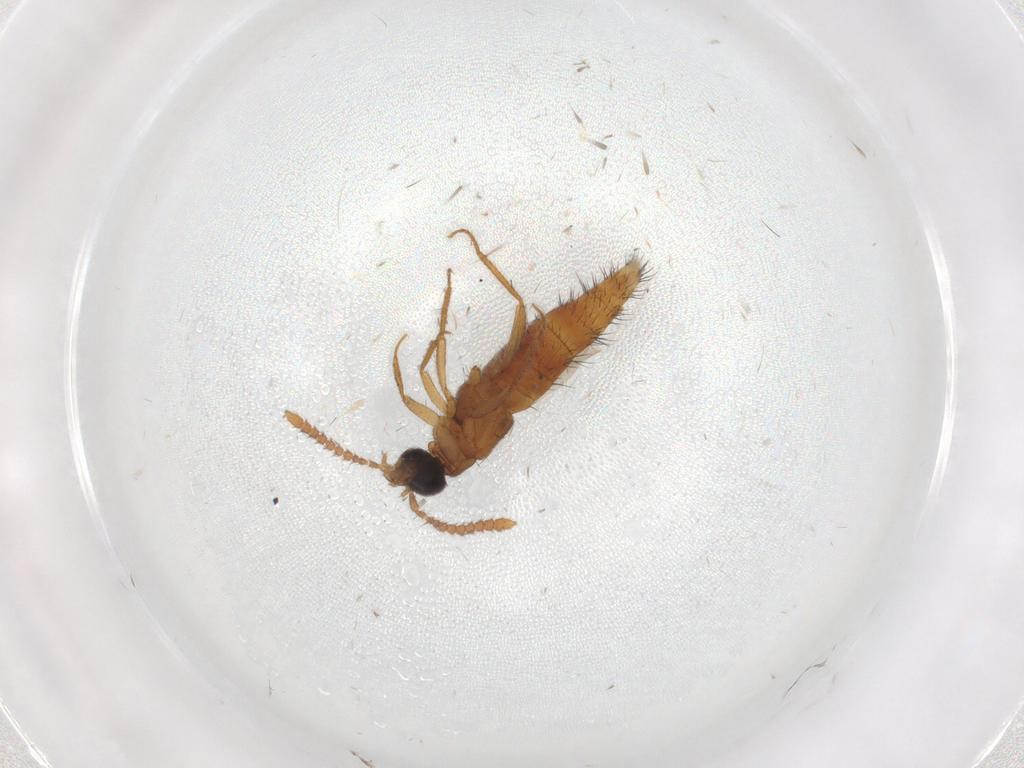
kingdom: Animalia
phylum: Arthropoda
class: Insecta
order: Coleoptera
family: Staphylinidae
